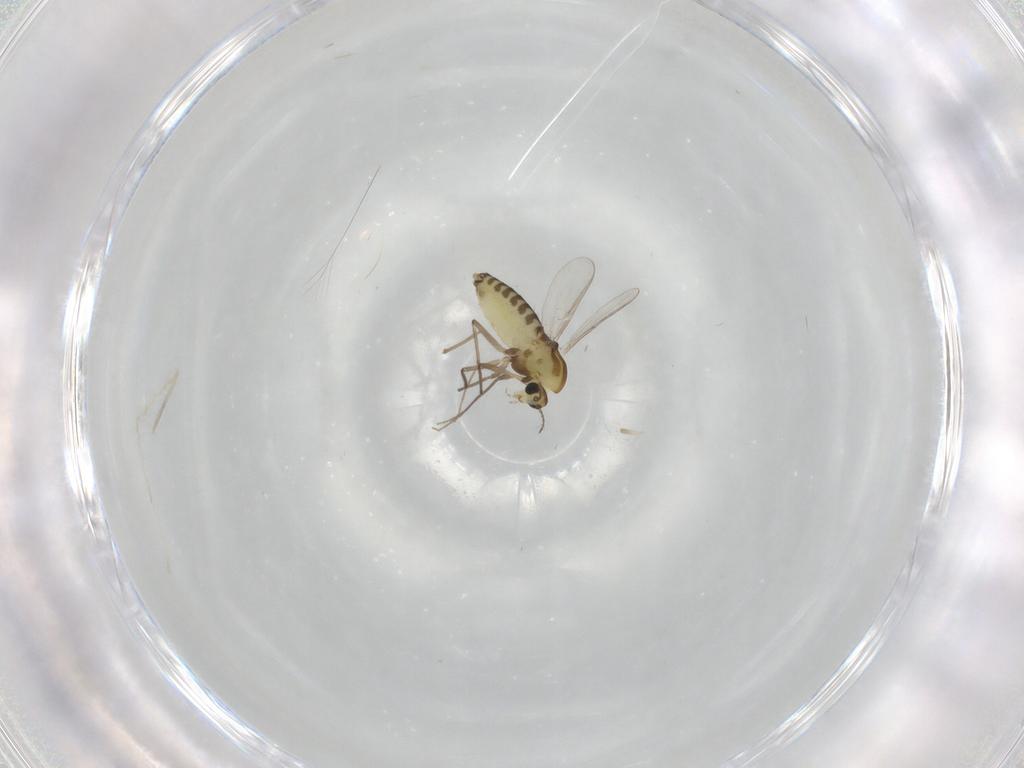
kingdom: Animalia
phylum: Arthropoda
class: Insecta
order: Diptera
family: Chironomidae
